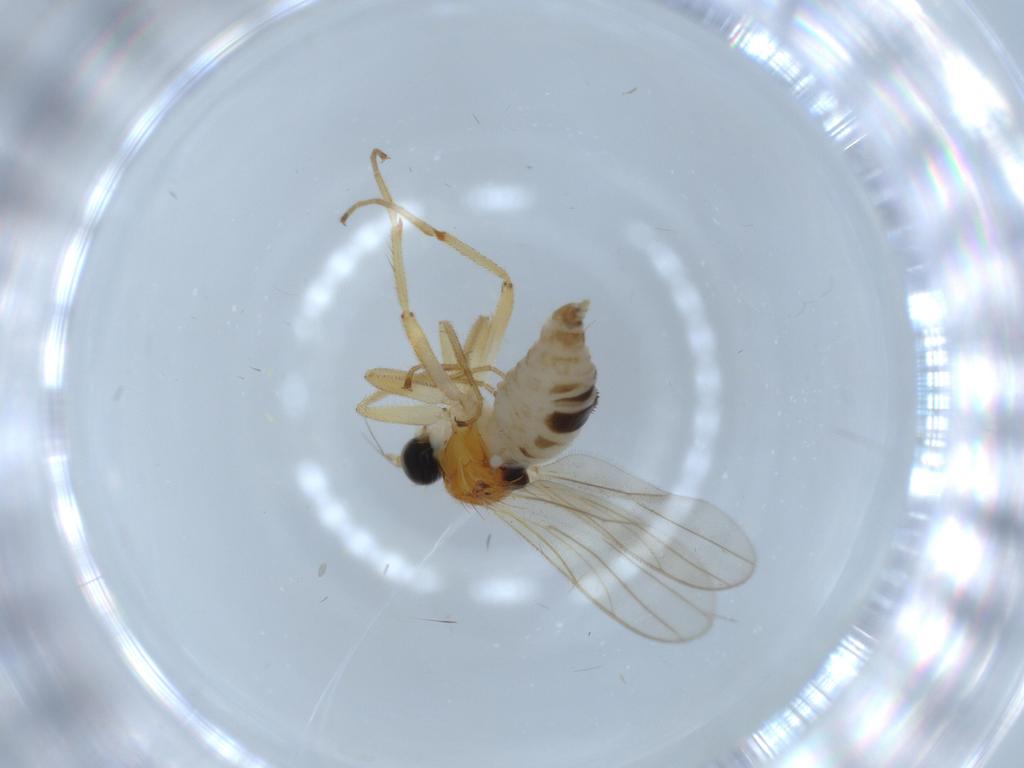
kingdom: Animalia
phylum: Arthropoda
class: Insecta
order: Diptera
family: Hybotidae
